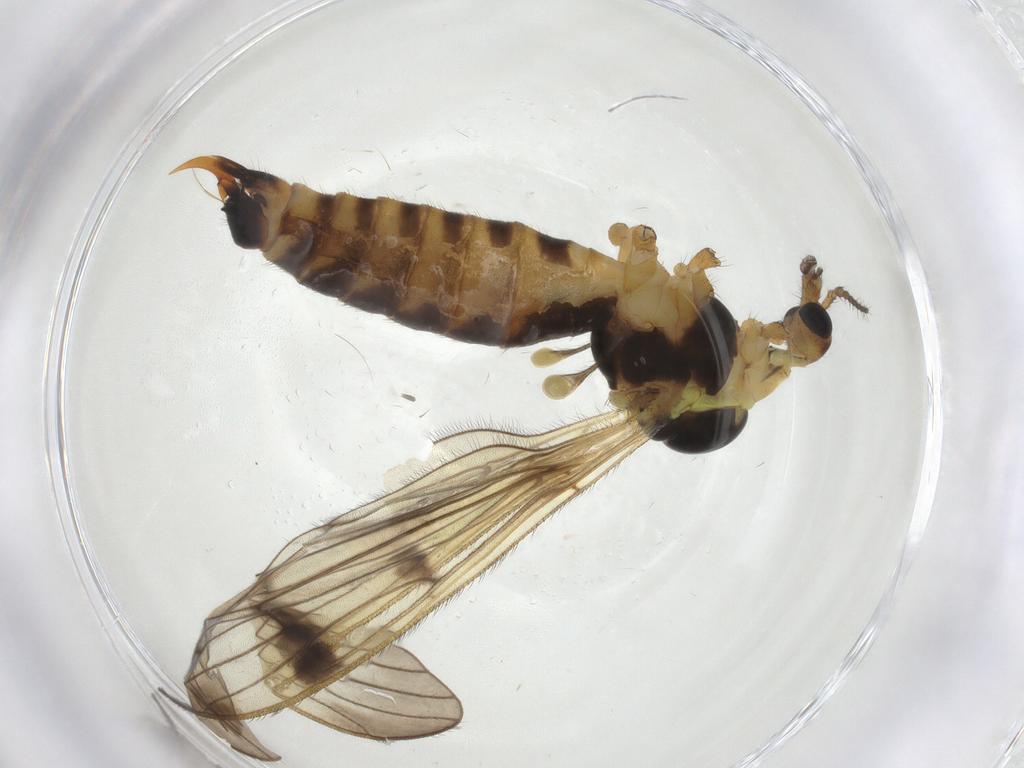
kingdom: Animalia
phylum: Arthropoda
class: Insecta
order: Diptera
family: Limoniidae
